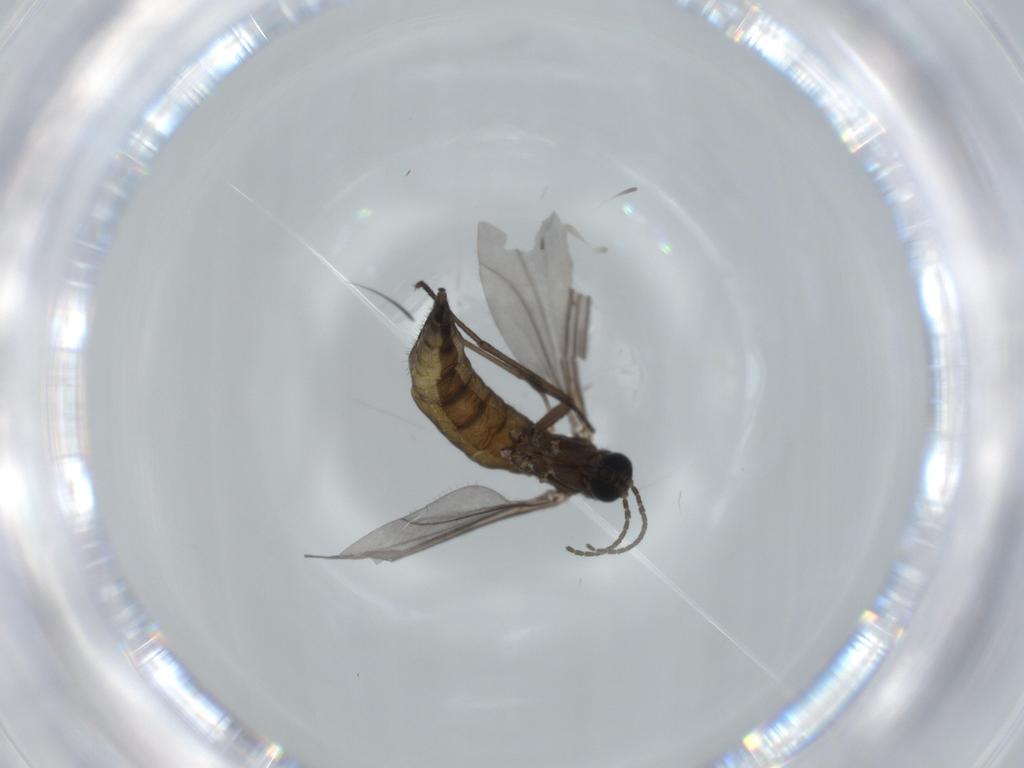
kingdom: Animalia
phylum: Arthropoda
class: Insecta
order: Diptera
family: Sciaridae
